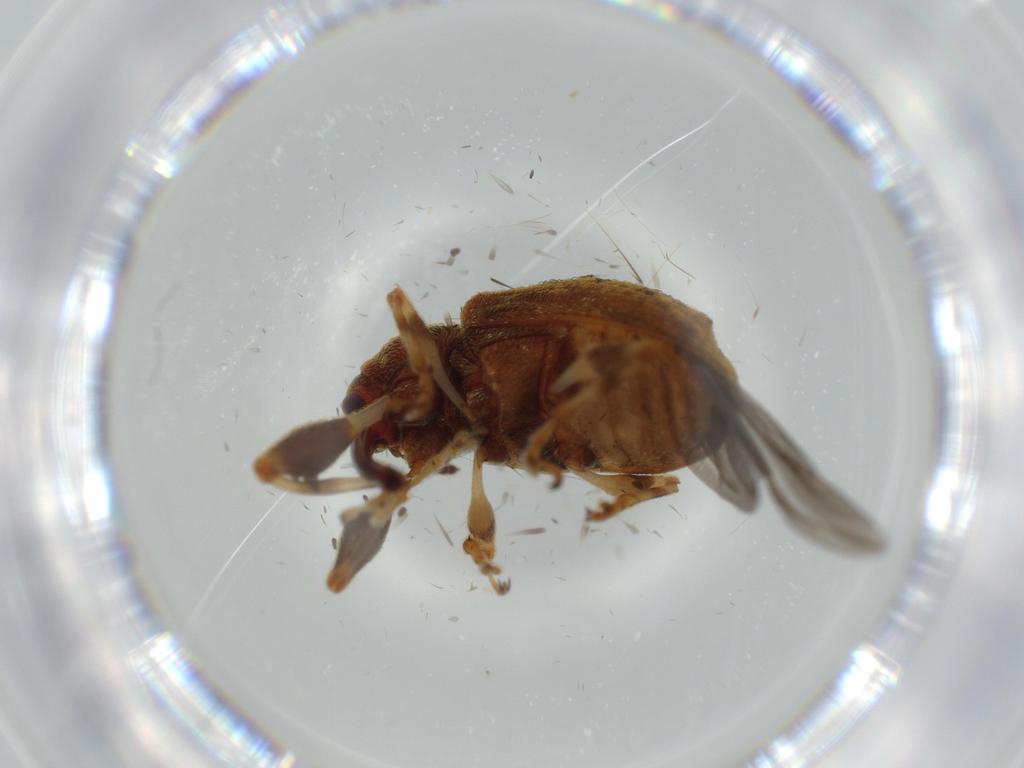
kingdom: Animalia
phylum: Arthropoda
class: Insecta
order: Coleoptera
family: Curculionidae
